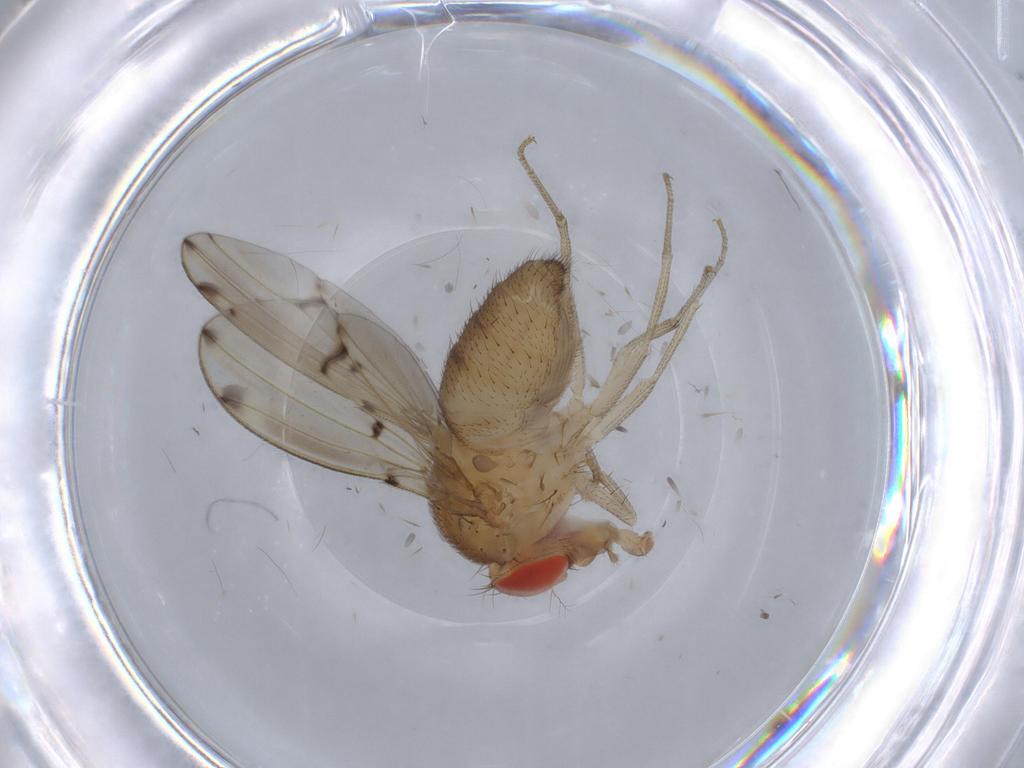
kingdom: Animalia
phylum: Arthropoda
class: Insecta
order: Diptera
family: Drosophilidae
